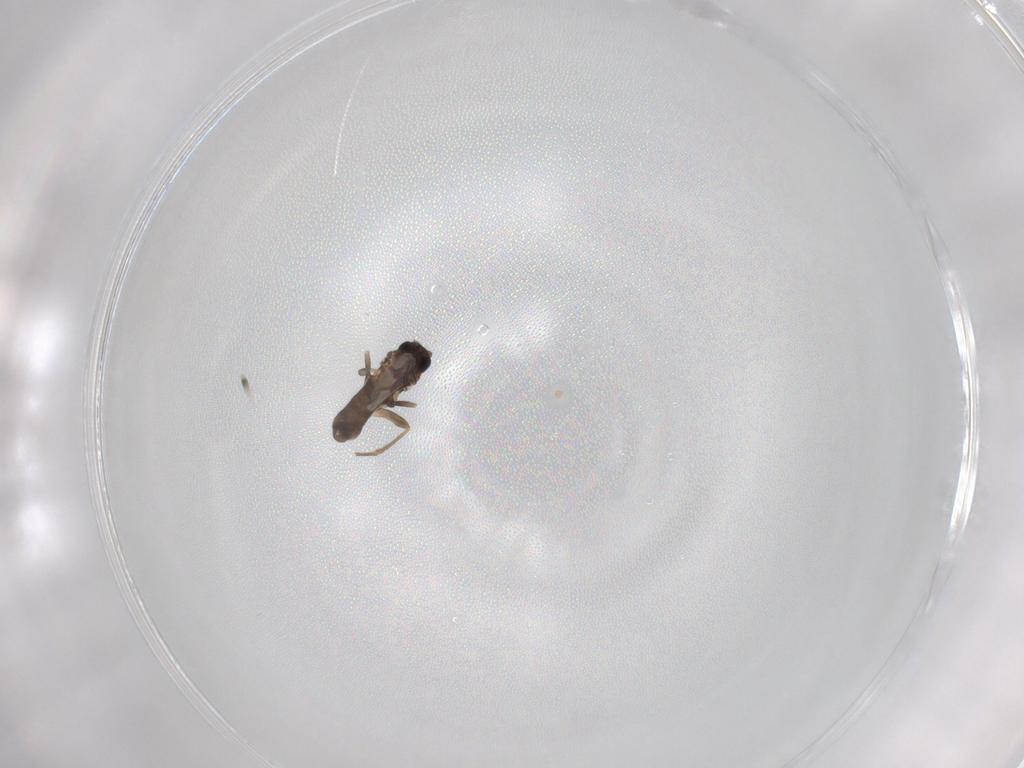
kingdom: Animalia
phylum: Arthropoda
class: Insecta
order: Diptera
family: Phoridae
